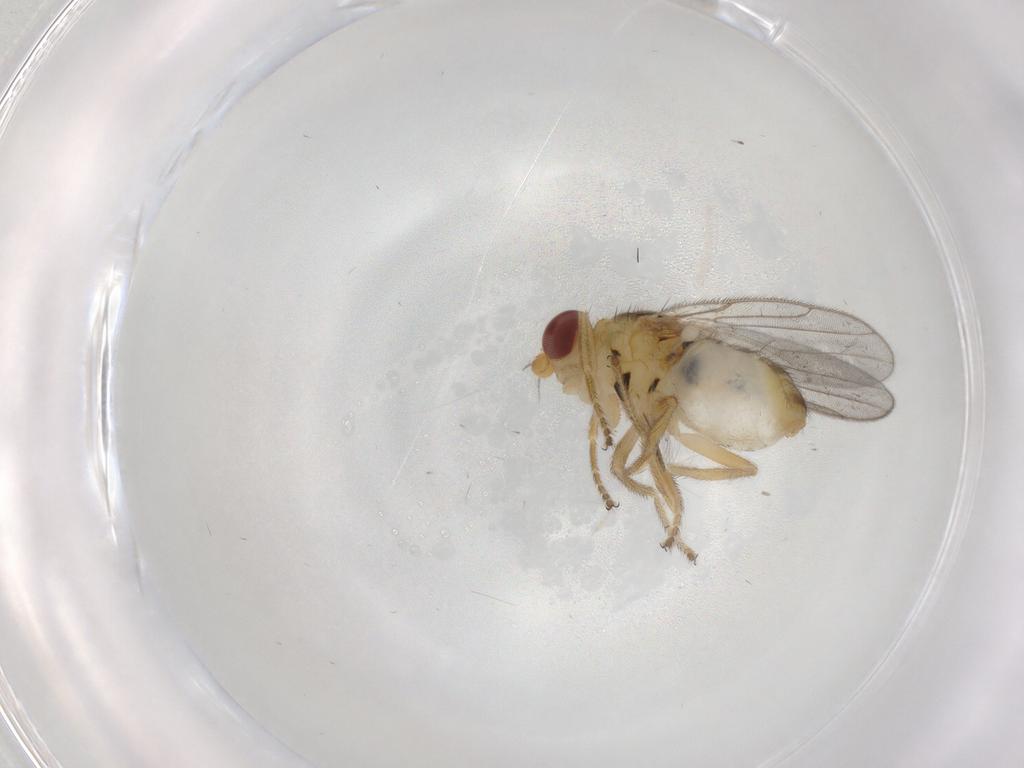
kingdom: Animalia
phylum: Arthropoda
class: Insecta
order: Diptera
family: Chloropidae
